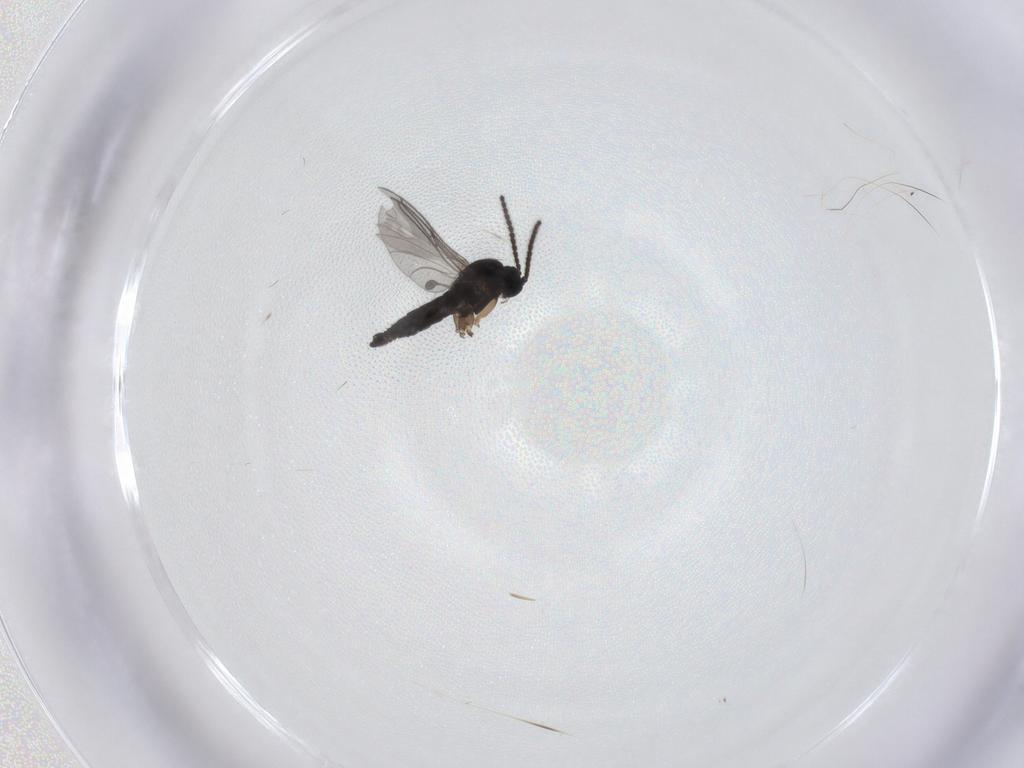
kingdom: Animalia
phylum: Arthropoda
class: Insecta
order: Diptera
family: Sciaridae
